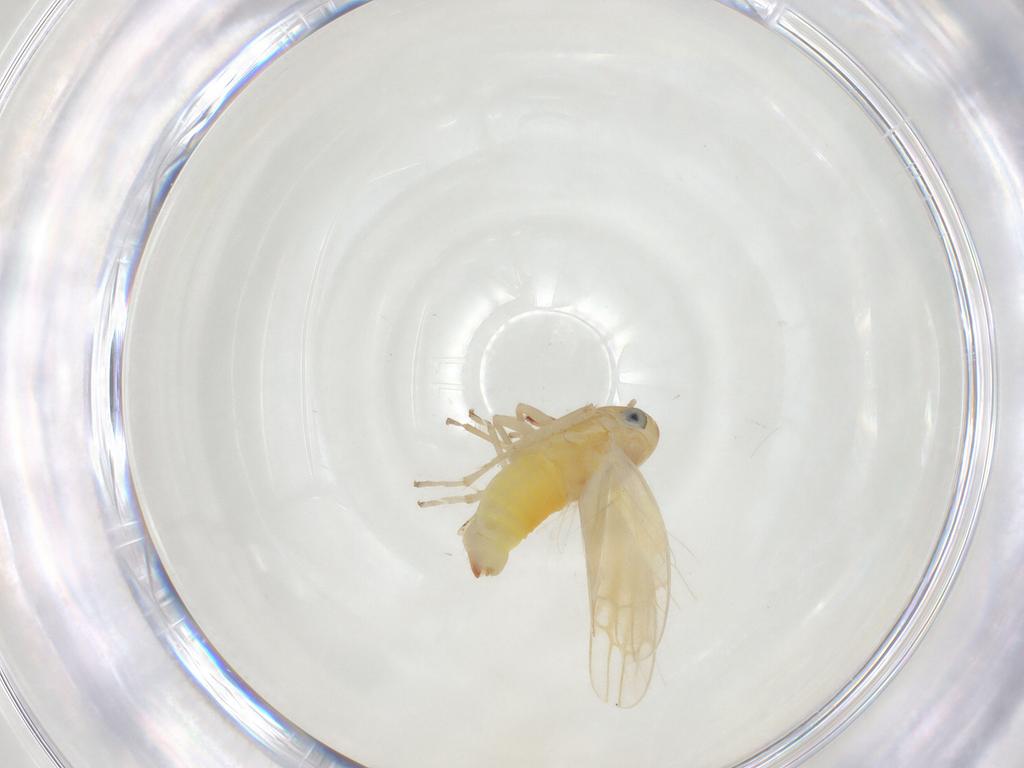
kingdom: Animalia
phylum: Arthropoda
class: Insecta
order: Hemiptera
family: Cicadellidae
